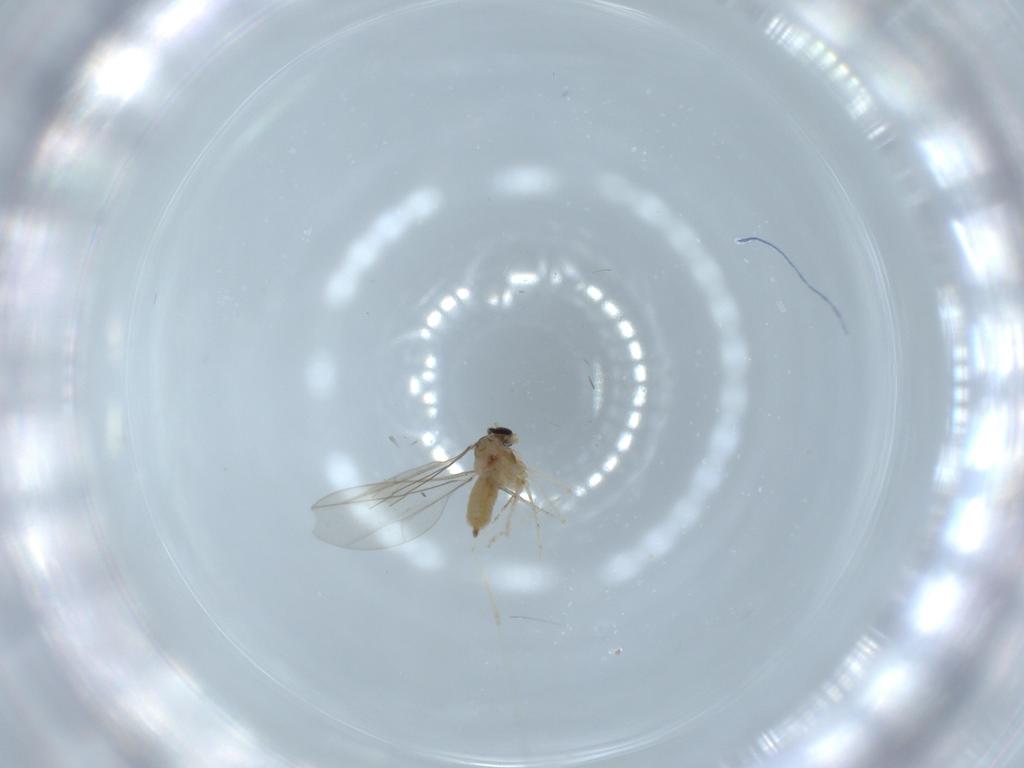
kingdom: Animalia
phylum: Arthropoda
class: Insecta
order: Diptera
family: Cecidomyiidae
